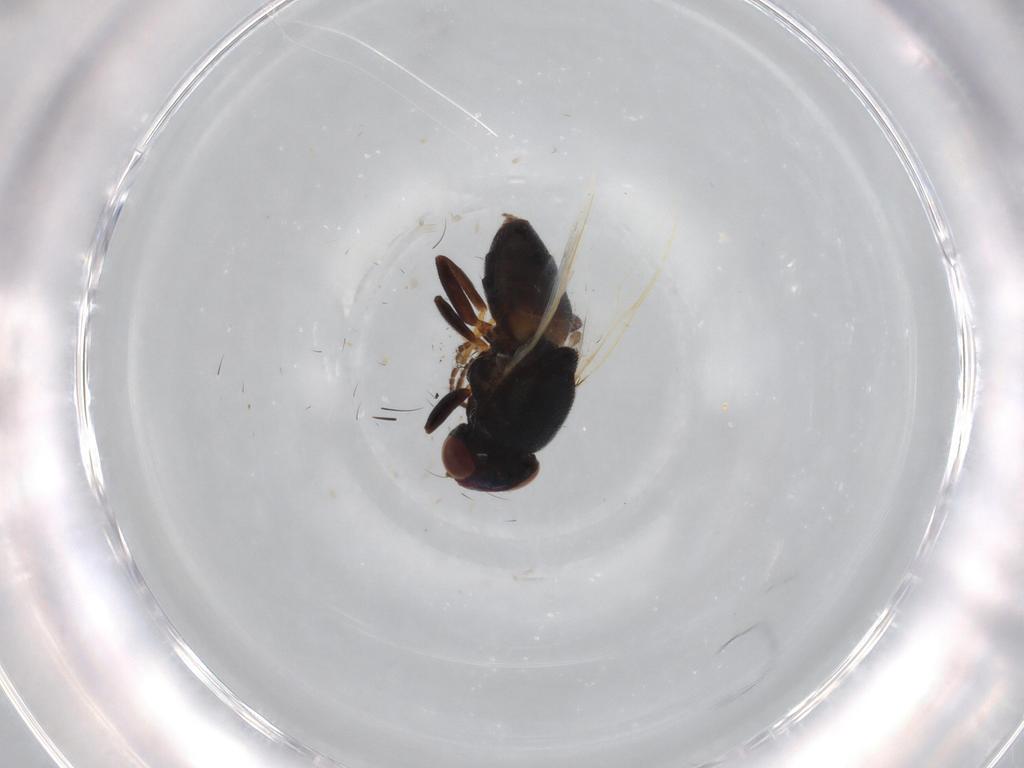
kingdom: Animalia
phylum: Arthropoda
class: Insecta
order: Diptera
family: Chloropidae
